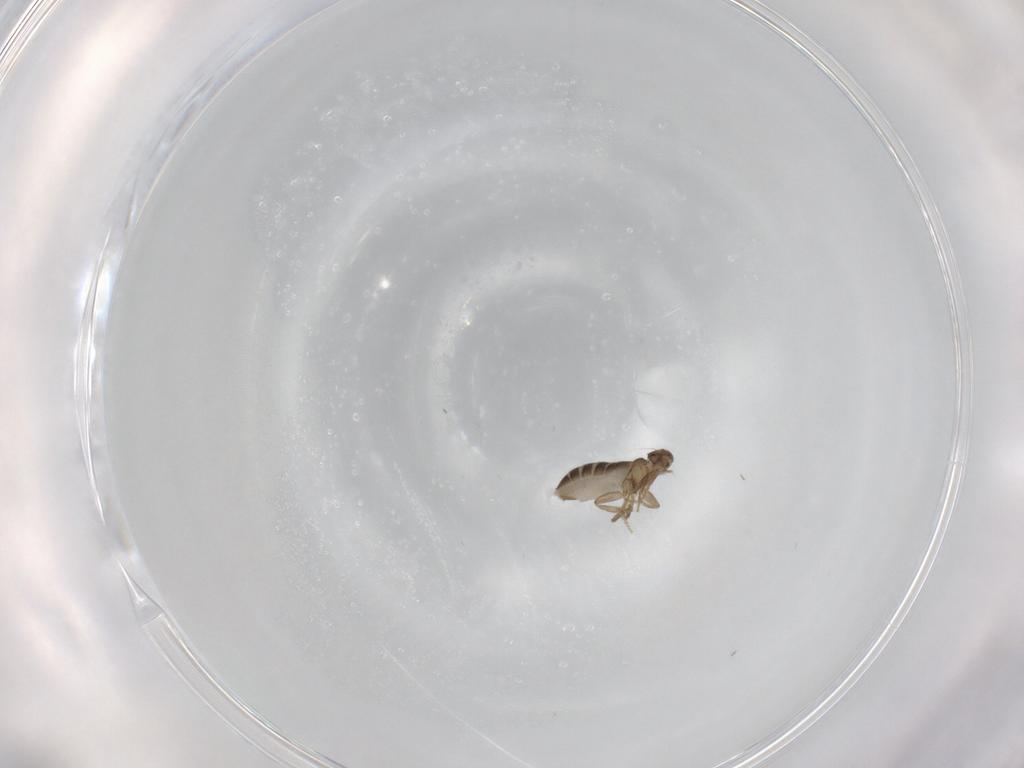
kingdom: Animalia
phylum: Arthropoda
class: Insecta
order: Diptera
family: Phoridae
